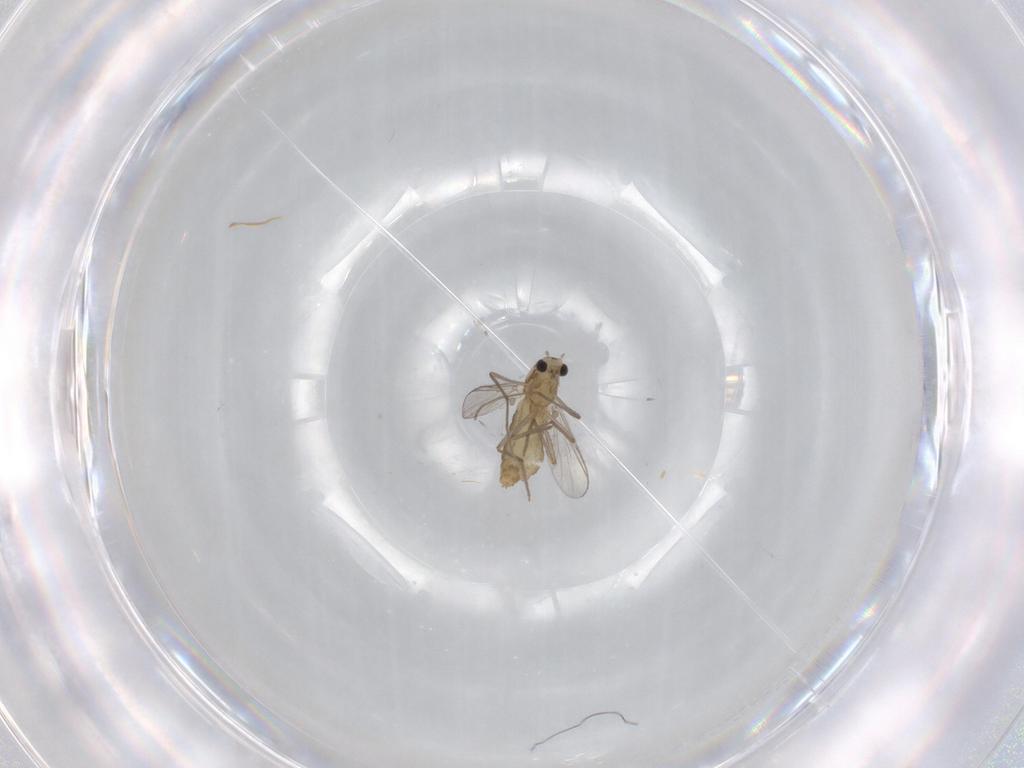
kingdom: Animalia
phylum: Arthropoda
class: Insecta
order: Diptera
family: Chironomidae
